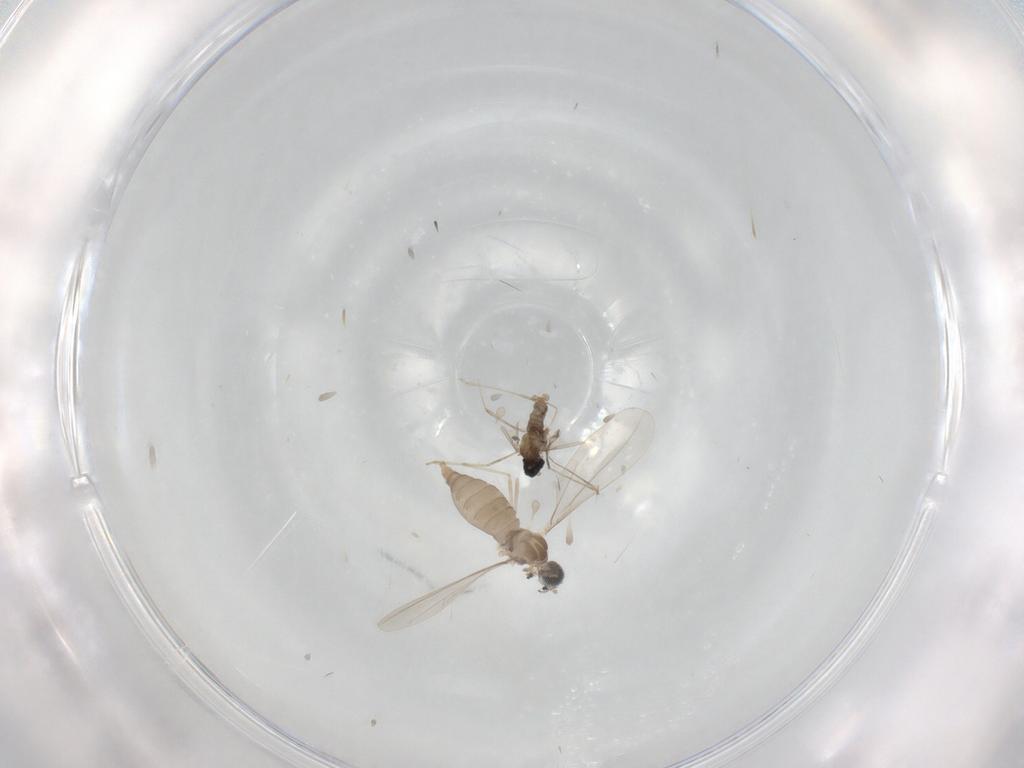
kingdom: Animalia
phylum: Arthropoda
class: Insecta
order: Diptera
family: Cecidomyiidae
